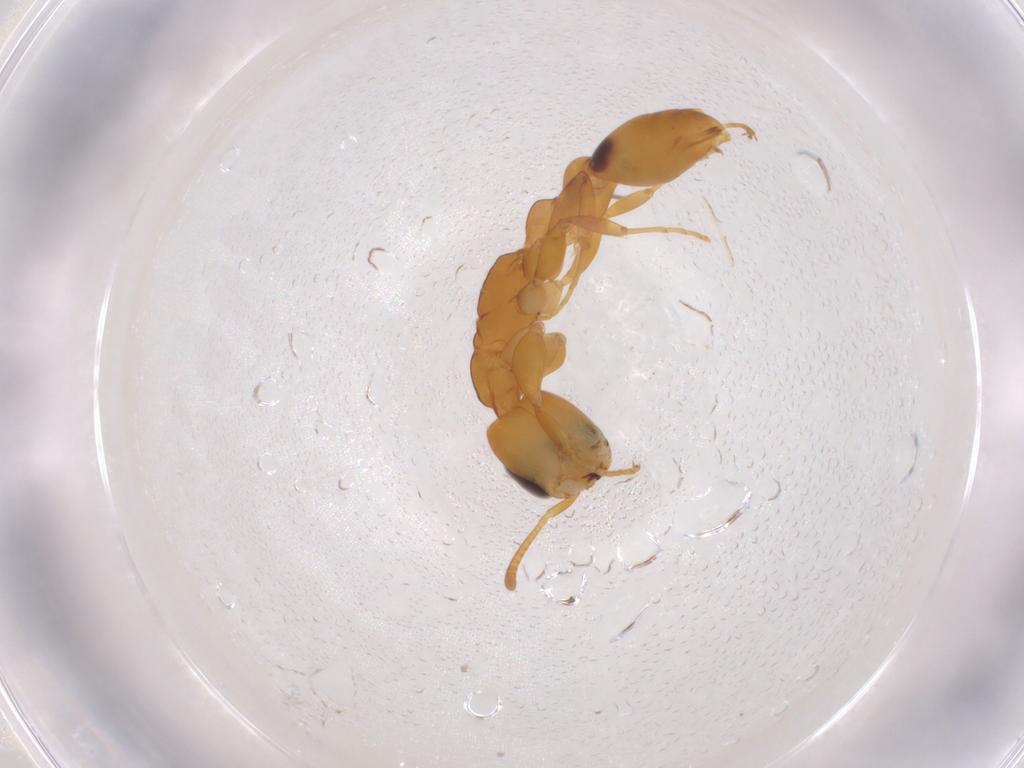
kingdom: Animalia
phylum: Arthropoda
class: Insecta
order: Hymenoptera
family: Formicidae
